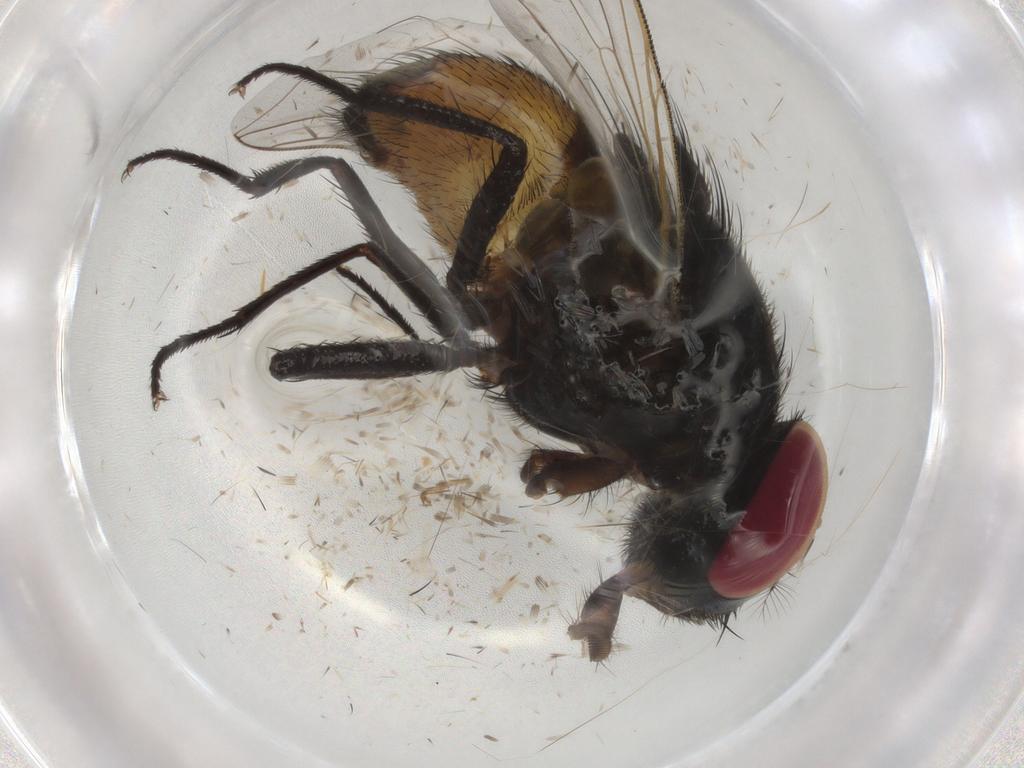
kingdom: Animalia
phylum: Arthropoda
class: Insecta
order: Diptera
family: Glossinidae
